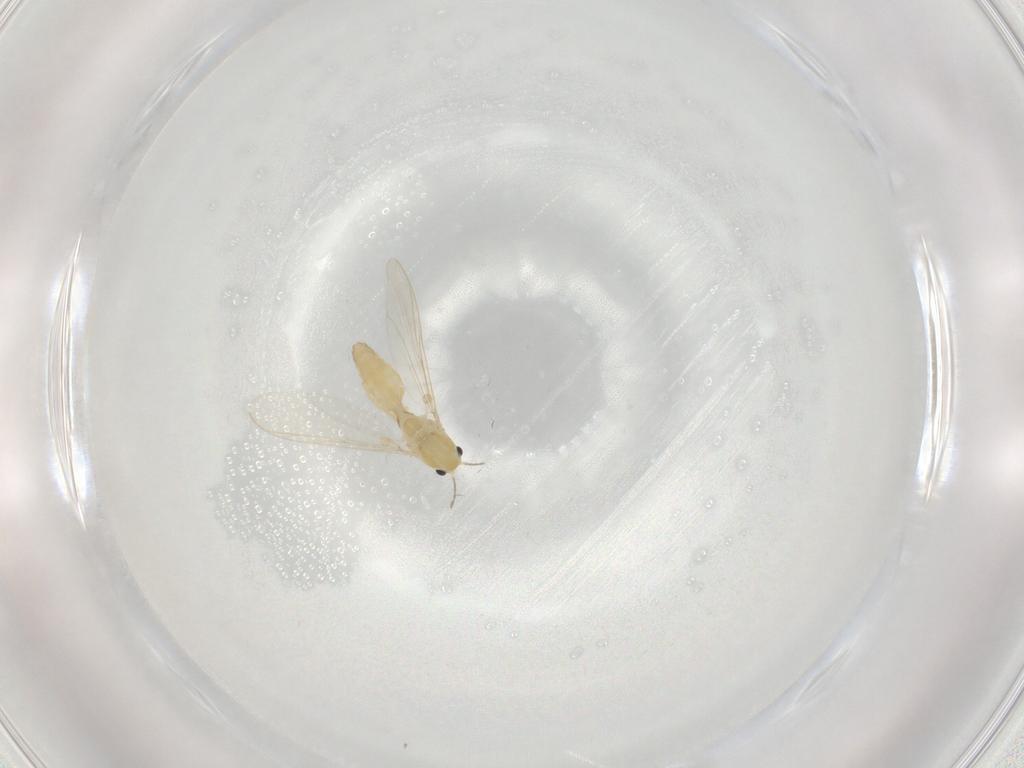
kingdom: Animalia
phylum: Arthropoda
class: Insecta
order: Diptera
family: Chironomidae
